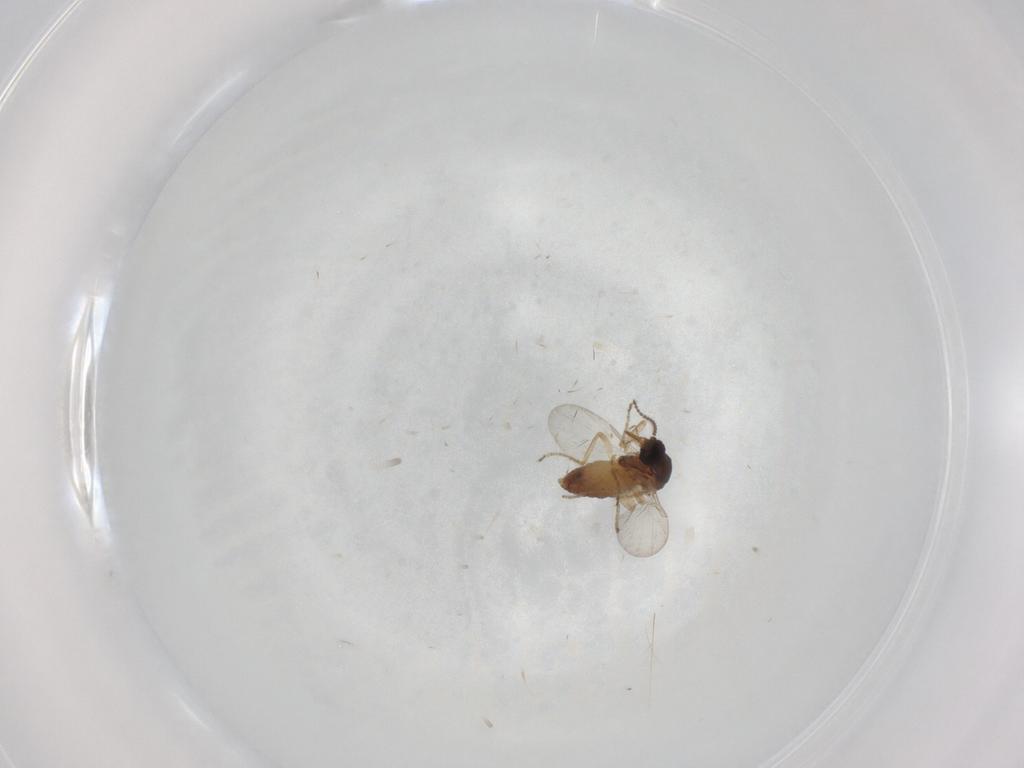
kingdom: Animalia
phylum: Arthropoda
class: Insecta
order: Diptera
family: Ceratopogonidae
